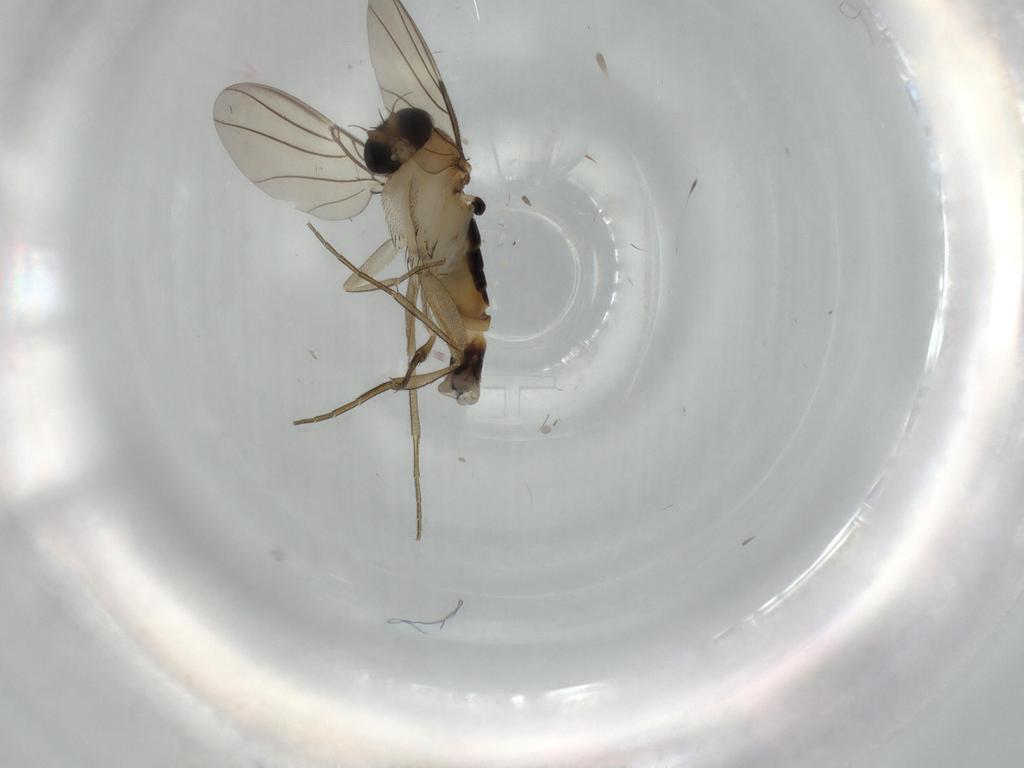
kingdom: Animalia
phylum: Arthropoda
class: Insecta
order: Diptera
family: Phoridae
